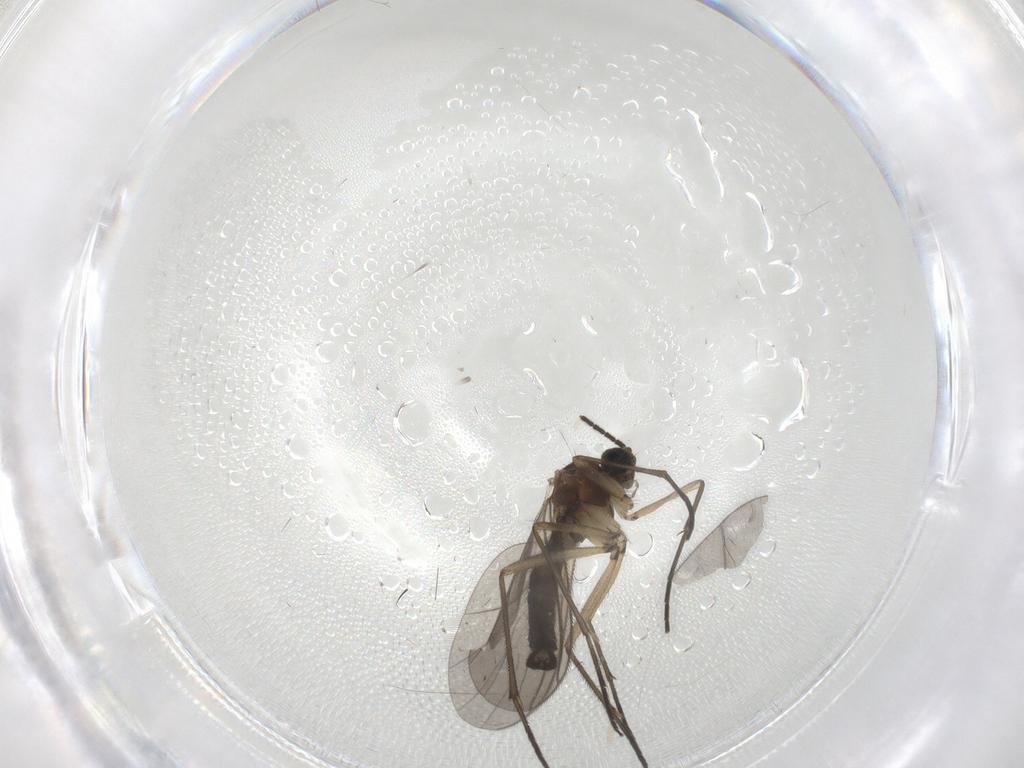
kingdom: Animalia
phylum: Arthropoda
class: Insecta
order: Diptera
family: Sciaridae
